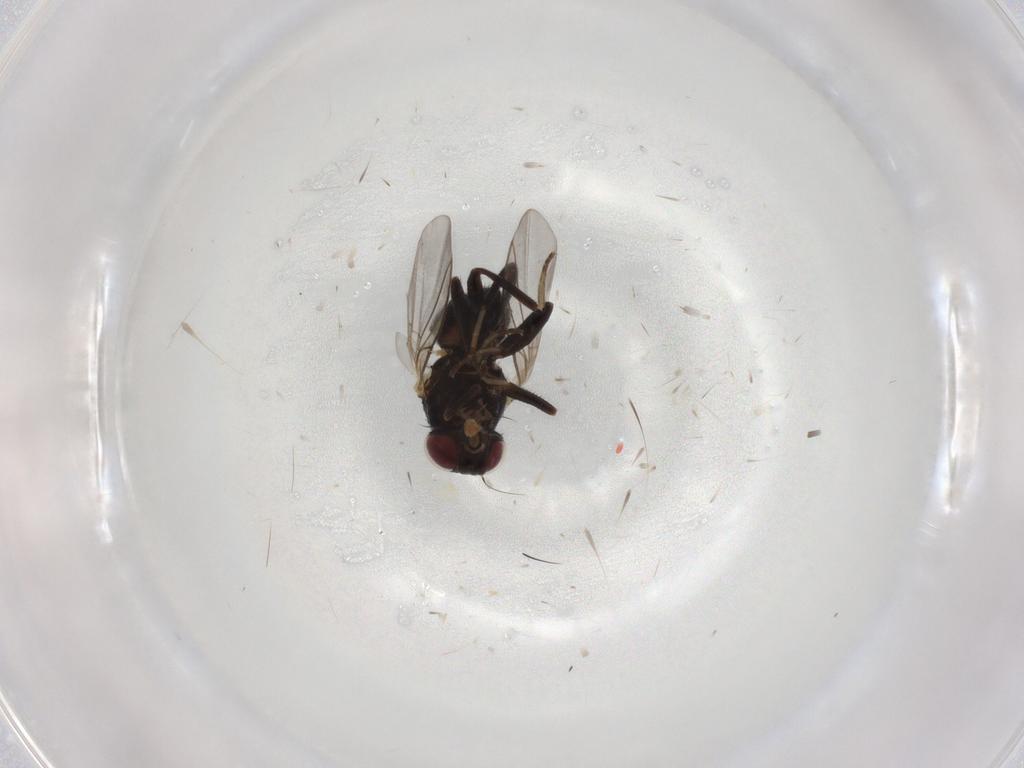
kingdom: Animalia
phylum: Arthropoda
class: Insecta
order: Diptera
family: Agromyzidae
